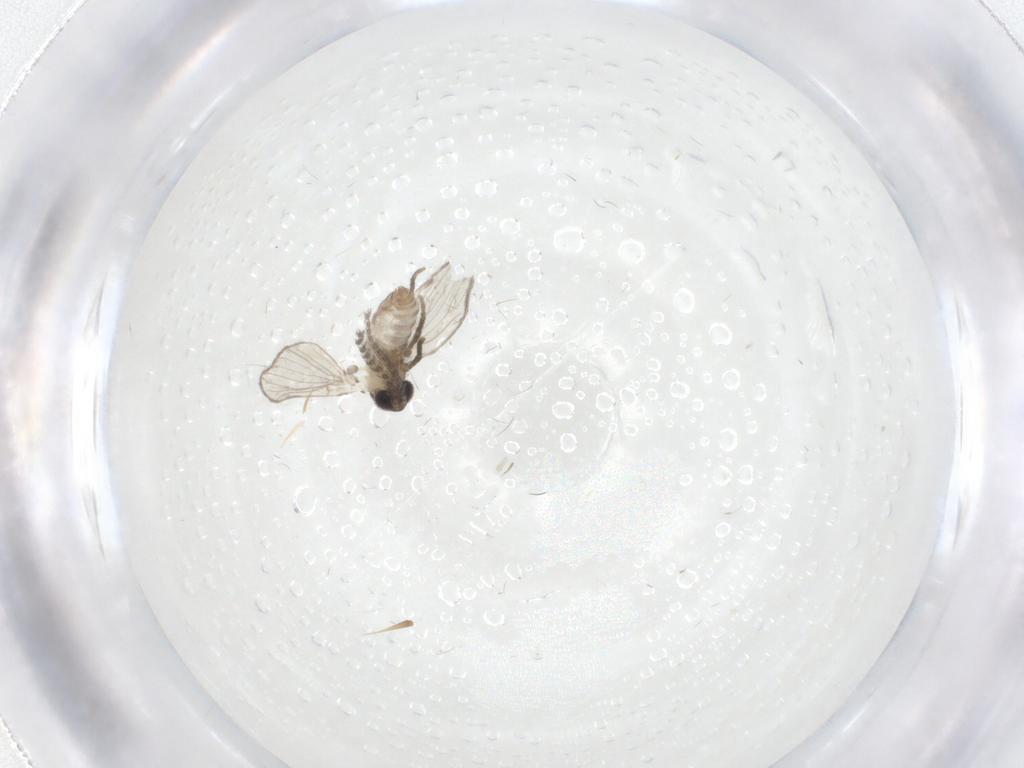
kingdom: Animalia
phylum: Arthropoda
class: Insecta
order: Diptera
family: Psychodidae
